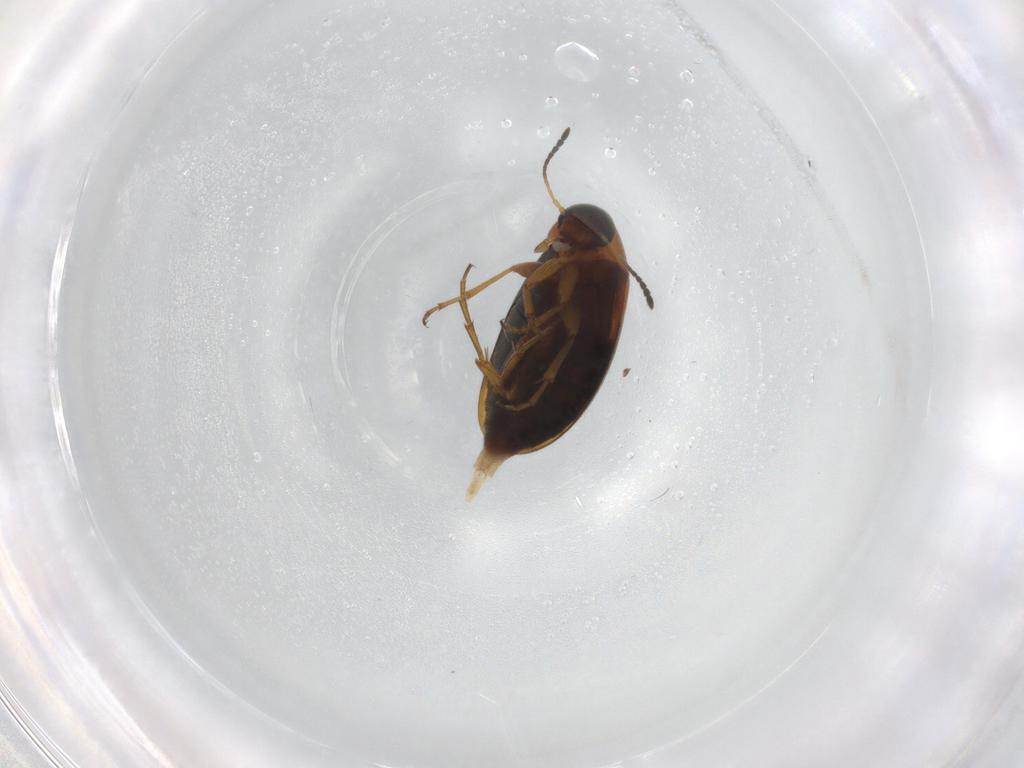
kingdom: Animalia
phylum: Arthropoda
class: Insecta
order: Coleoptera
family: Scraptiidae
